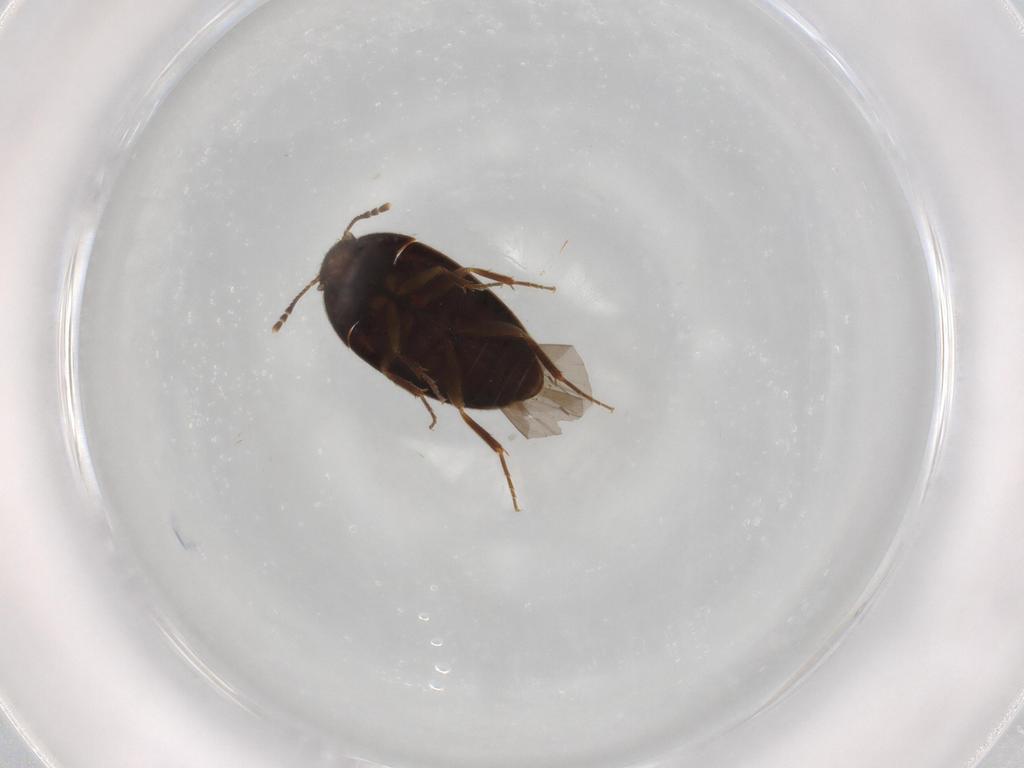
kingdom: Animalia
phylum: Arthropoda
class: Insecta
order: Coleoptera
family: Mycetophagidae
